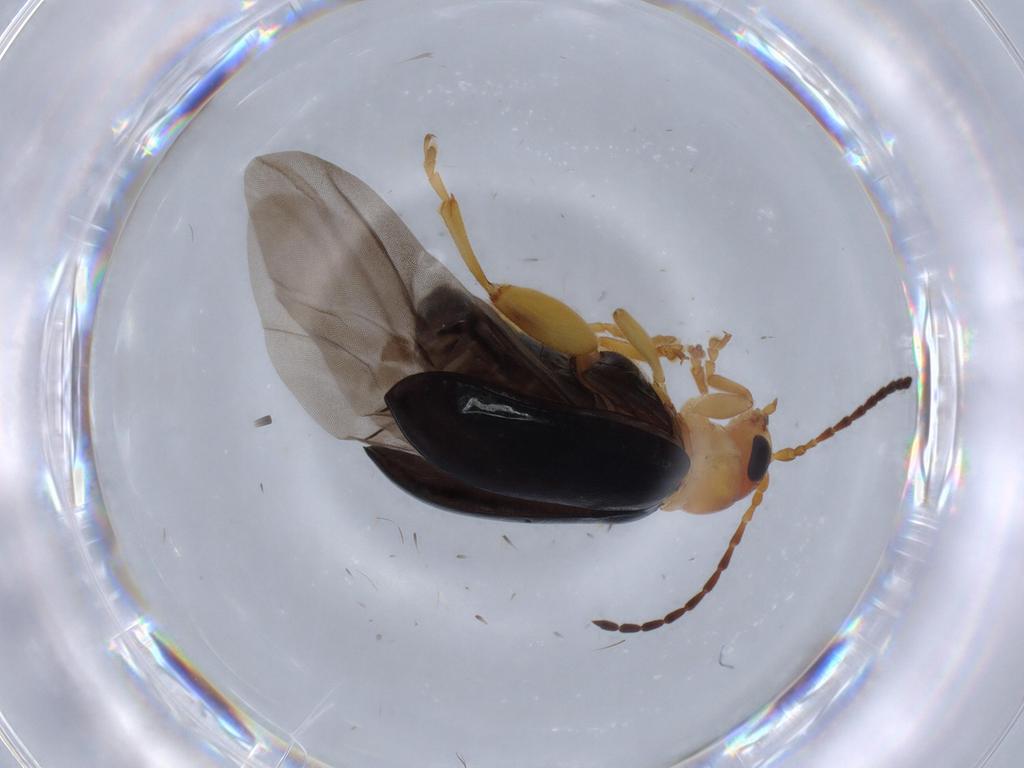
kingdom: Animalia
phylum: Arthropoda
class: Insecta
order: Coleoptera
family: Chrysomelidae
